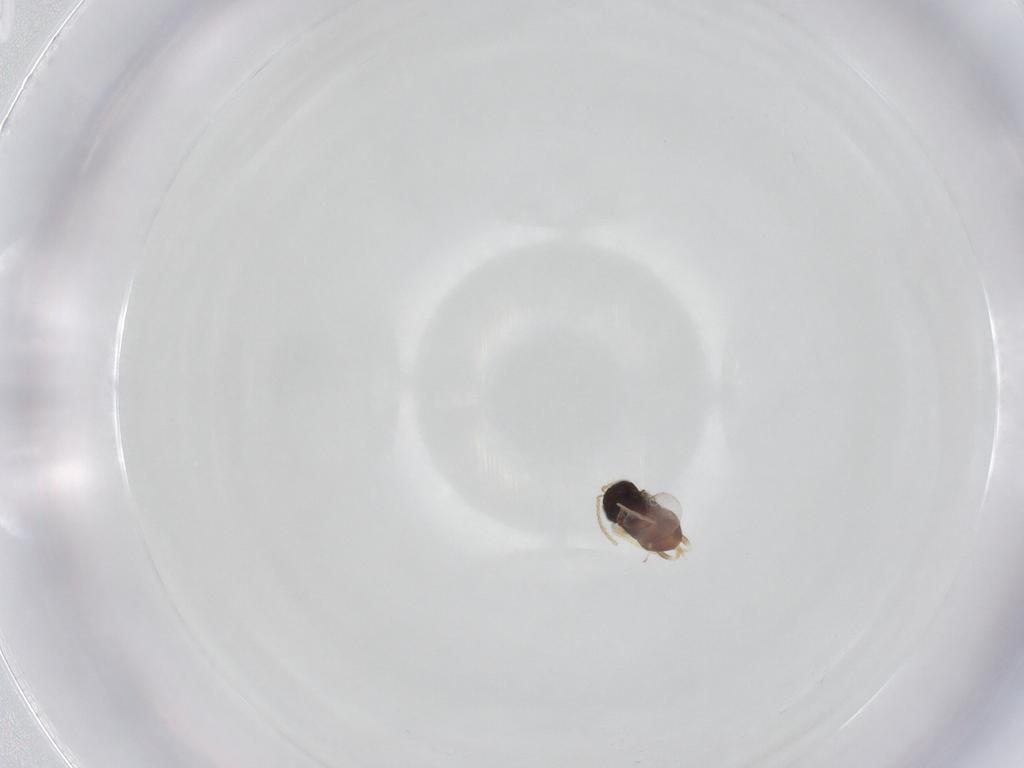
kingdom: Animalia
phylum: Arthropoda
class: Insecta
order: Hymenoptera
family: Encyrtidae
